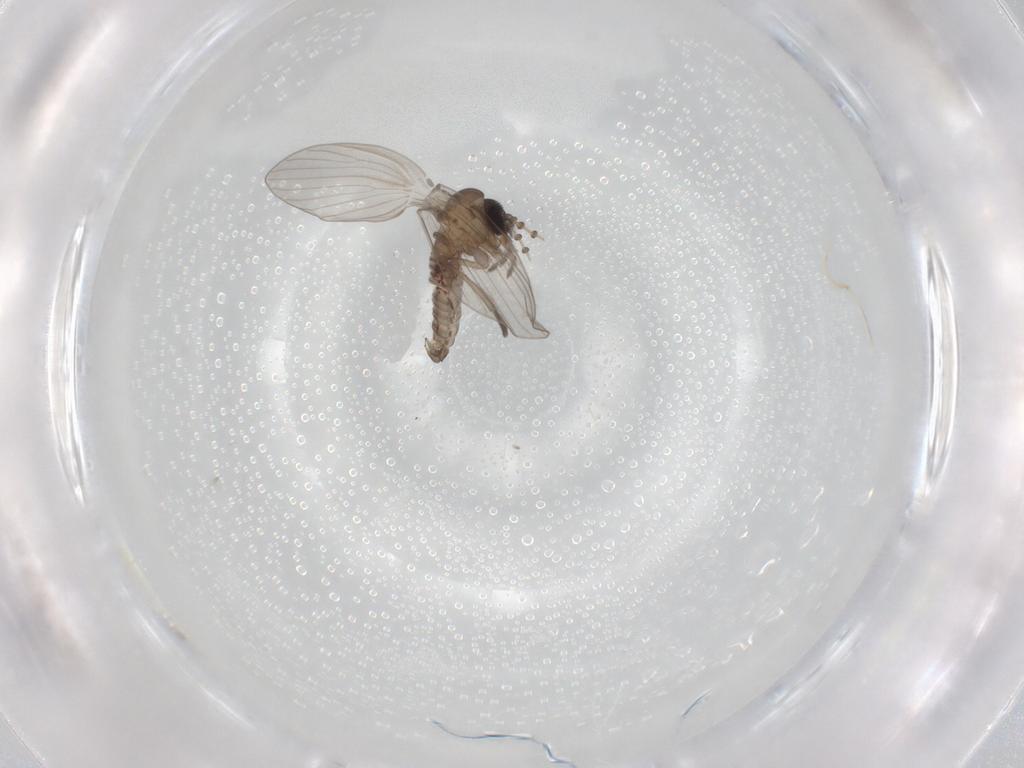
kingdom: Animalia
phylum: Arthropoda
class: Insecta
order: Diptera
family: Psychodidae
